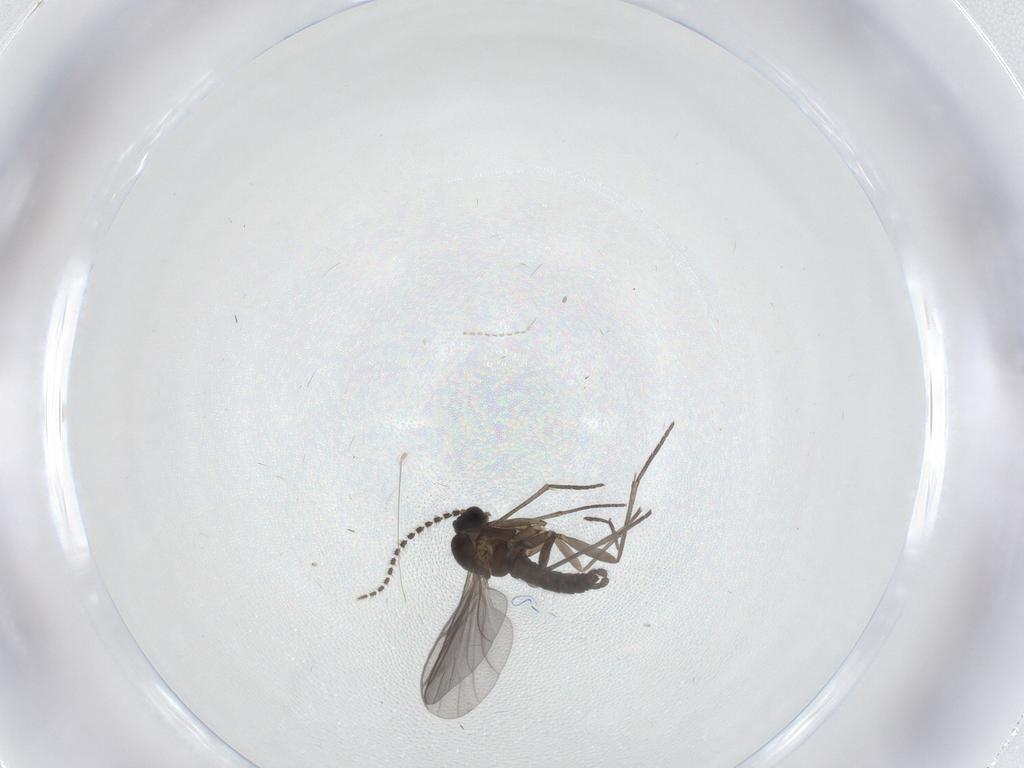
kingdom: Animalia
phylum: Arthropoda
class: Insecta
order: Diptera
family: Sciaridae
